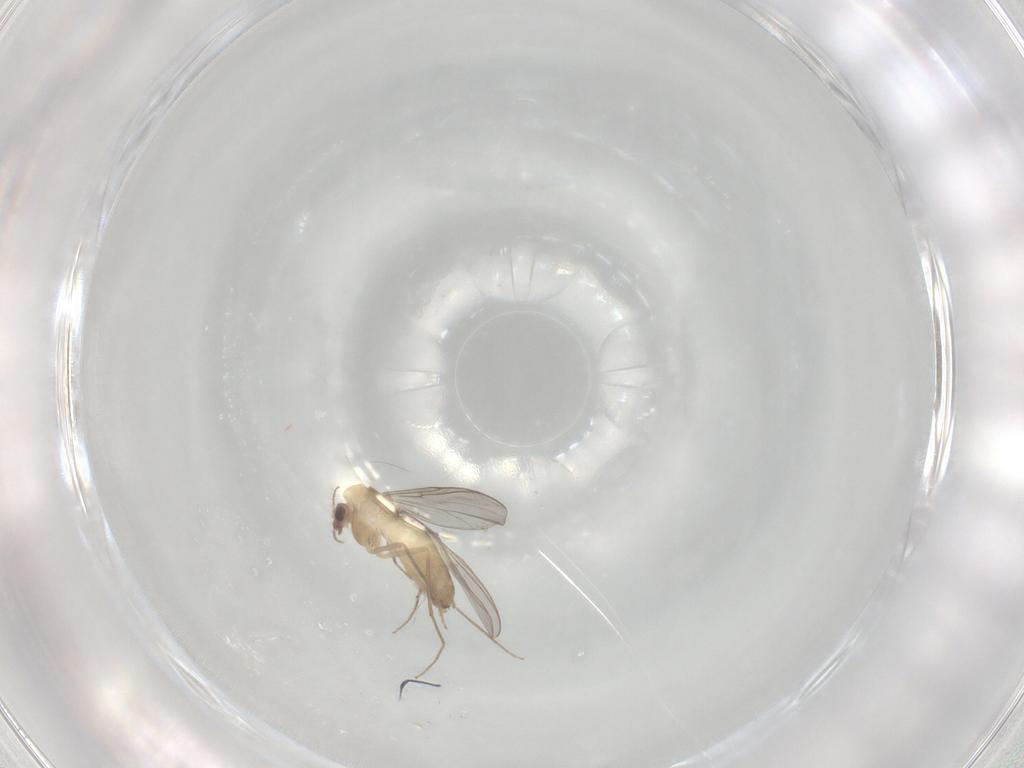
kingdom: Animalia
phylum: Arthropoda
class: Insecta
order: Diptera
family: Chironomidae
